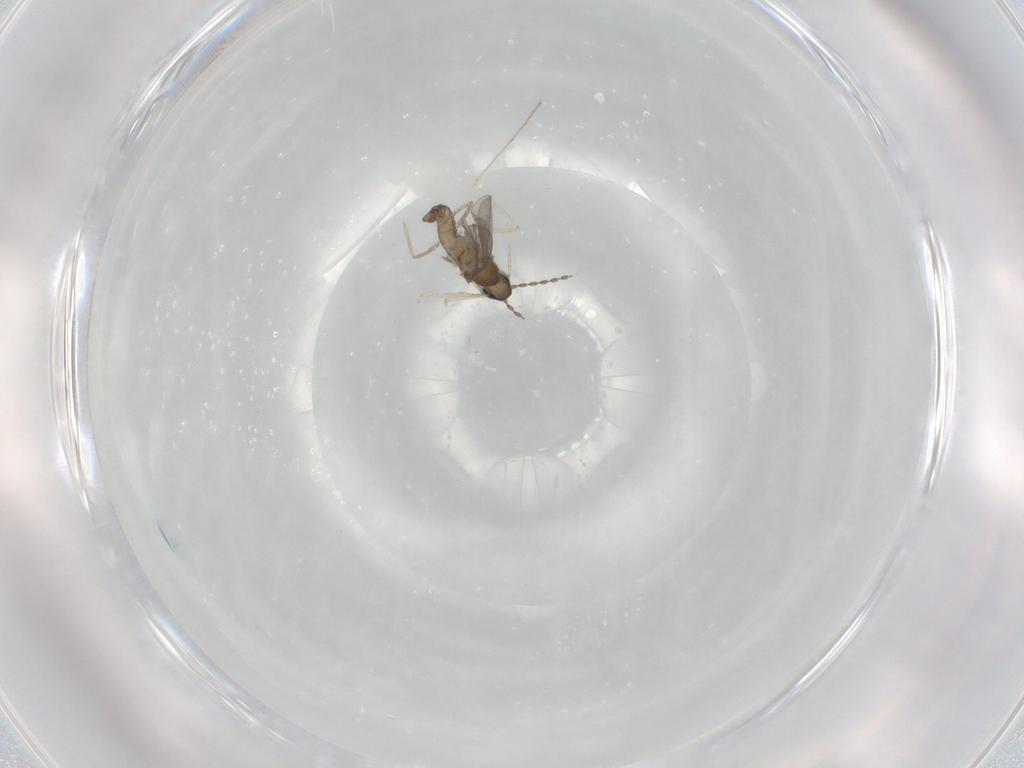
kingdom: Animalia
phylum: Arthropoda
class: Insecta
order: Diptera
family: Cecidomyiidae
